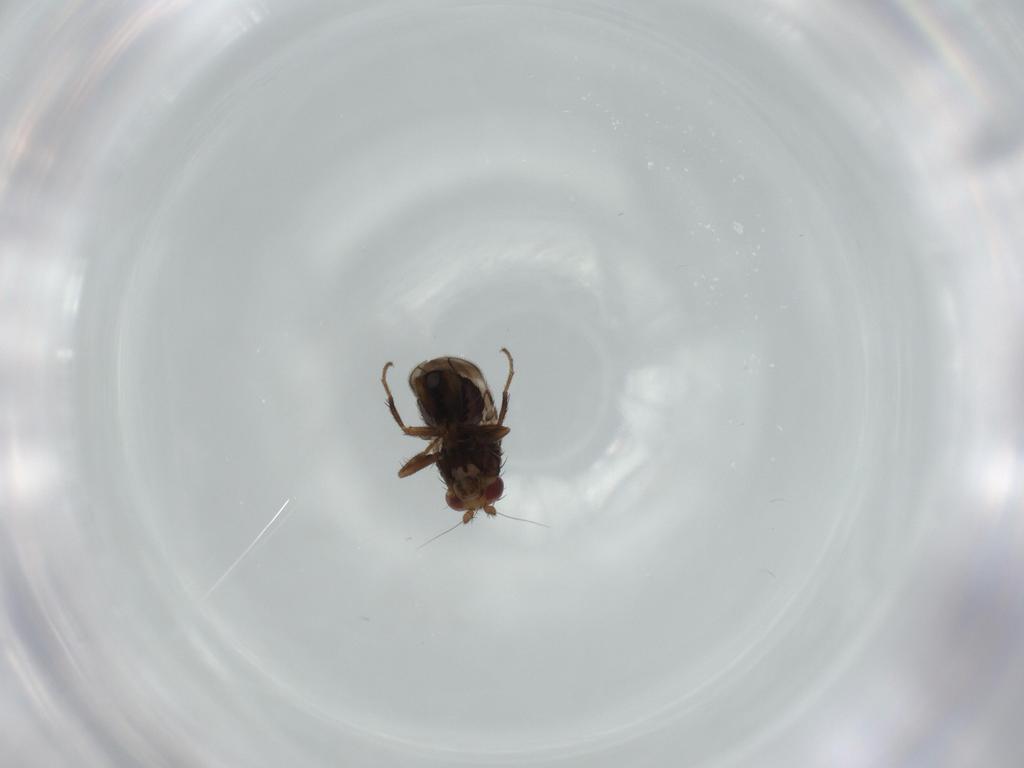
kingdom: Animalia
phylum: Arthropoda
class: Insecta
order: Diptera
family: Sphaeroceridae
